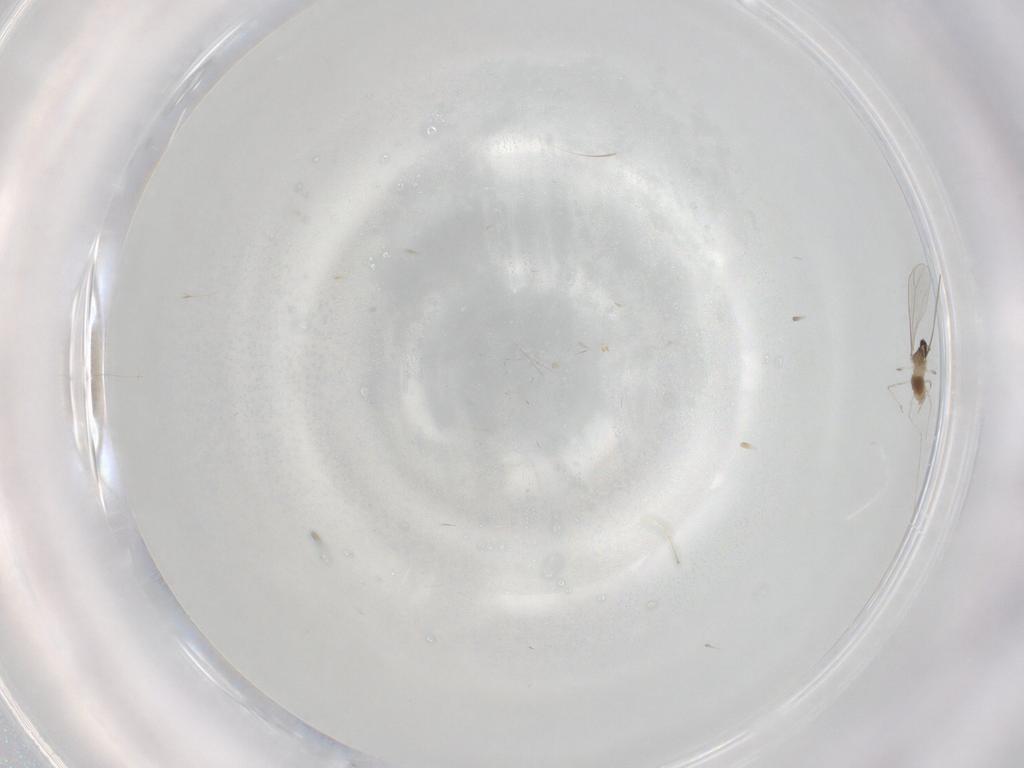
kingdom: Animalia
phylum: Arthropoda
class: Insecta
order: Diptera
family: Cecidomyiidae
